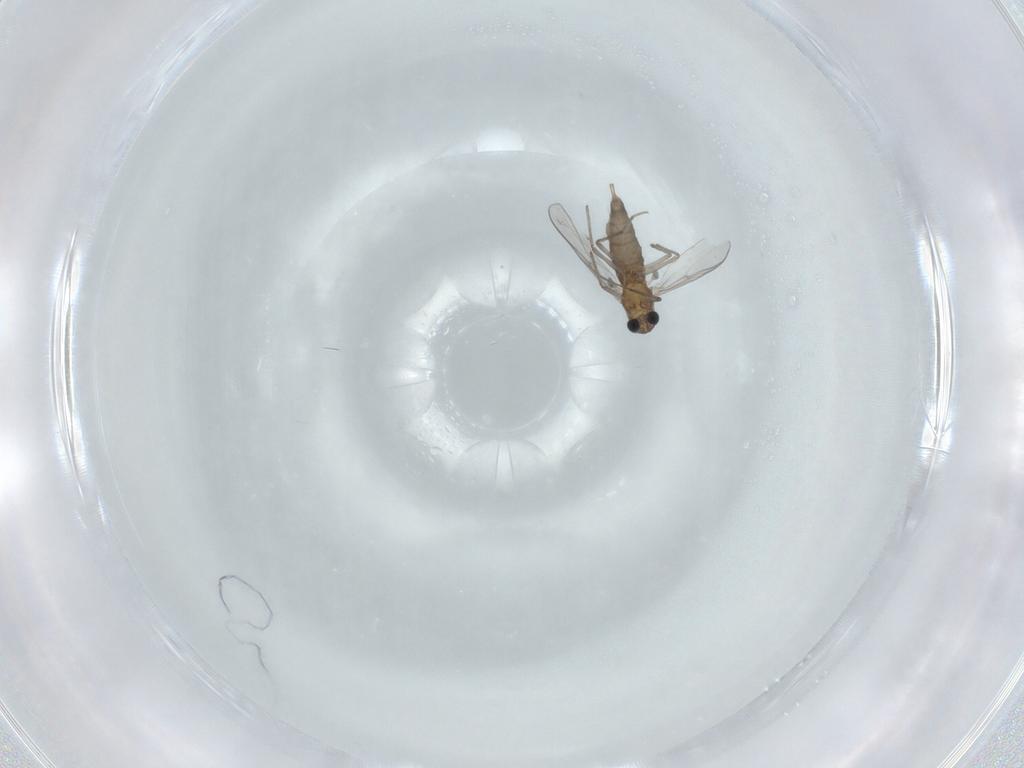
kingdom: Animalia
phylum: Arthropoda
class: Insecta
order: Diptera
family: Chironomidae
